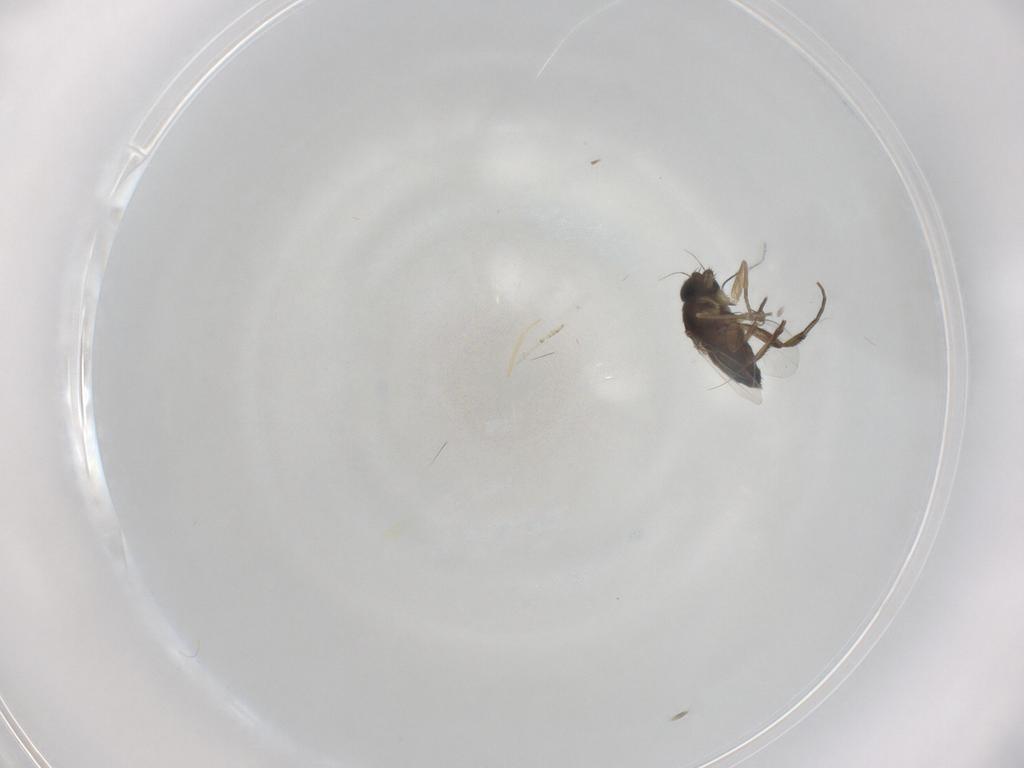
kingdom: Animalia
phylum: Arthropoda
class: Insecta
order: Diptera
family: Phoridae
